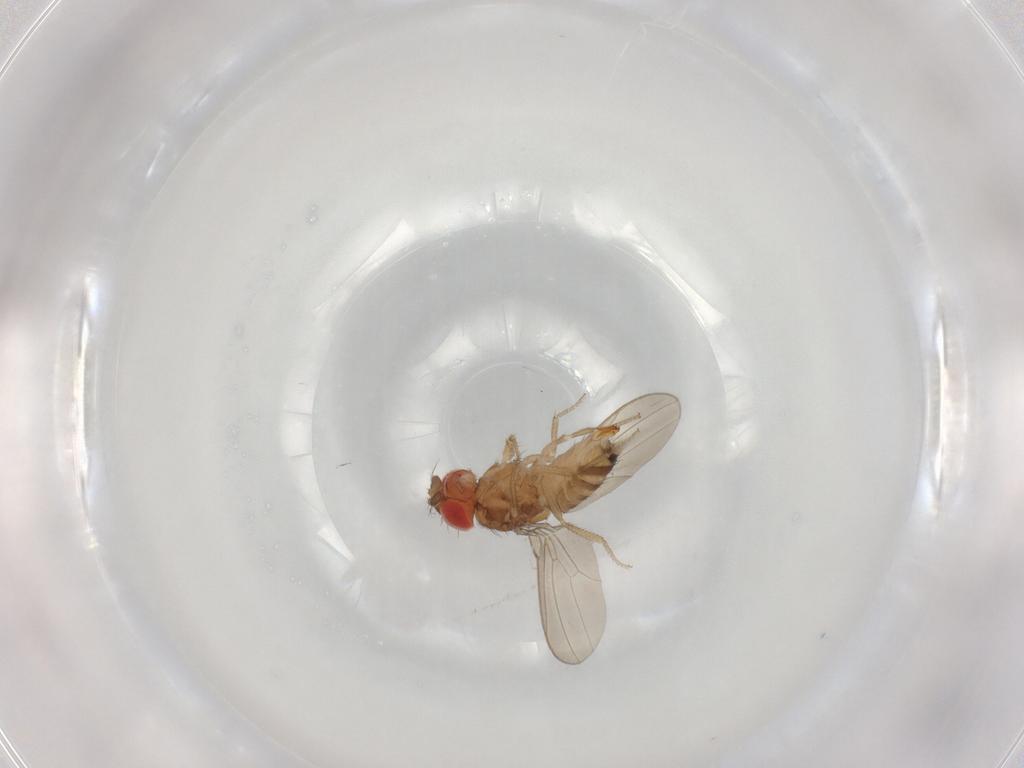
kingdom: Animalia
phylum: Arthropoda
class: Insecta
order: Diptera
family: Drosophilidae
